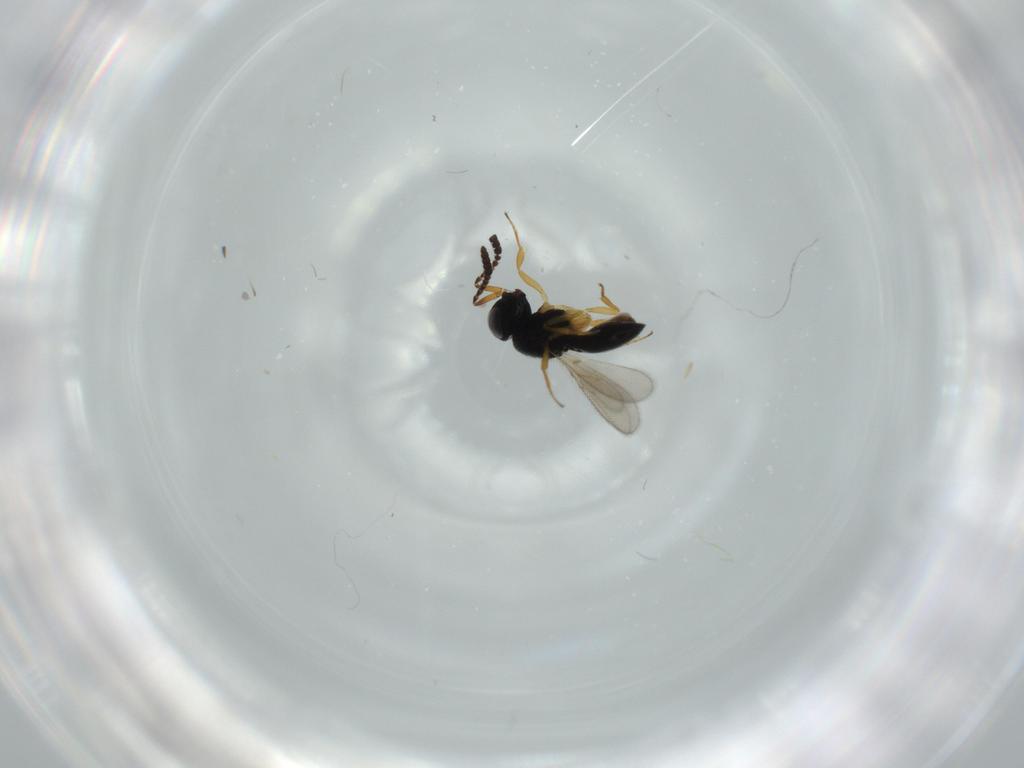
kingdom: Animalia
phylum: Arthropoda
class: Insecta
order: Hymenoptera
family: Scelionidae
